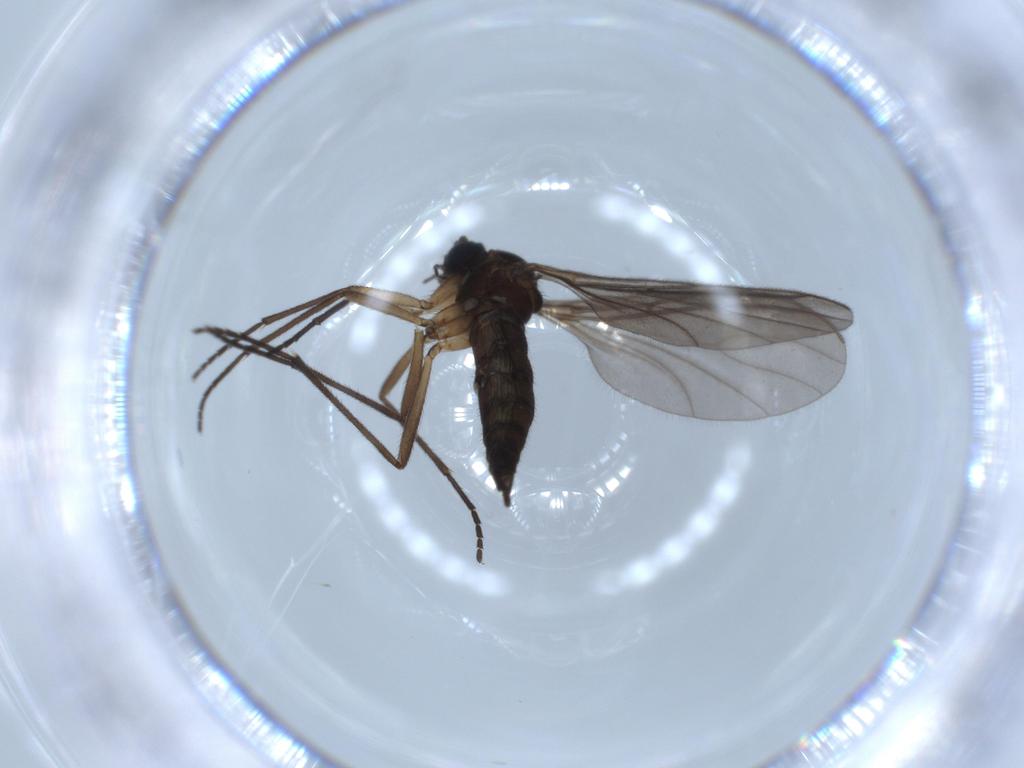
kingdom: Animalia
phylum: Arthropoda
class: Insecta
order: Diptera
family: Sciaridae
